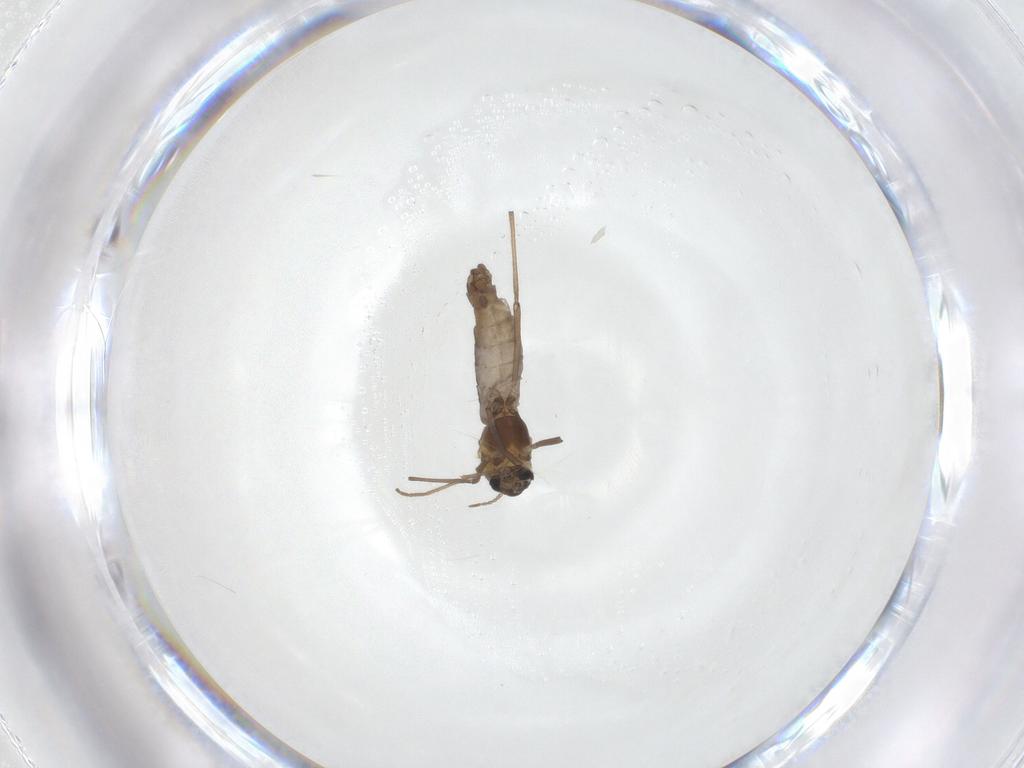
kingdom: Animalia
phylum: Arthropoda
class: Insecta
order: Diptera
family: Chironomidae
